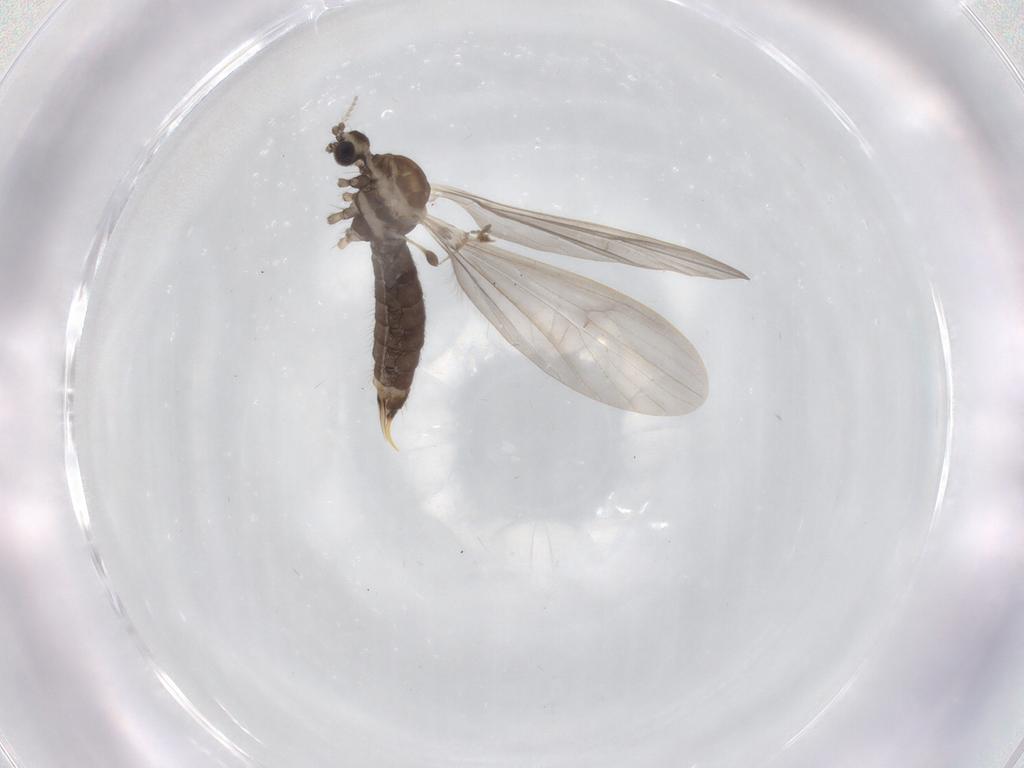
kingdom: Animalia
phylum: Arthropoda
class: Insecta
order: Diptera
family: Limoniidae
